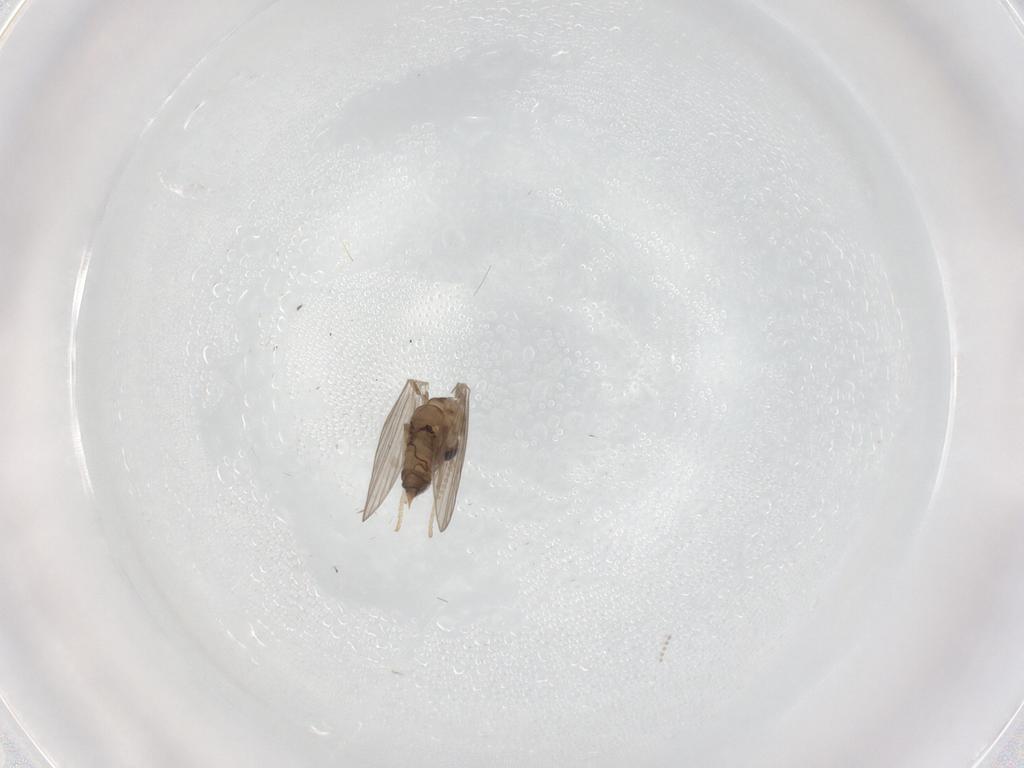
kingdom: Animalia
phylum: Arthropoda
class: Insecta
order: Diptera
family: Psychodidae
